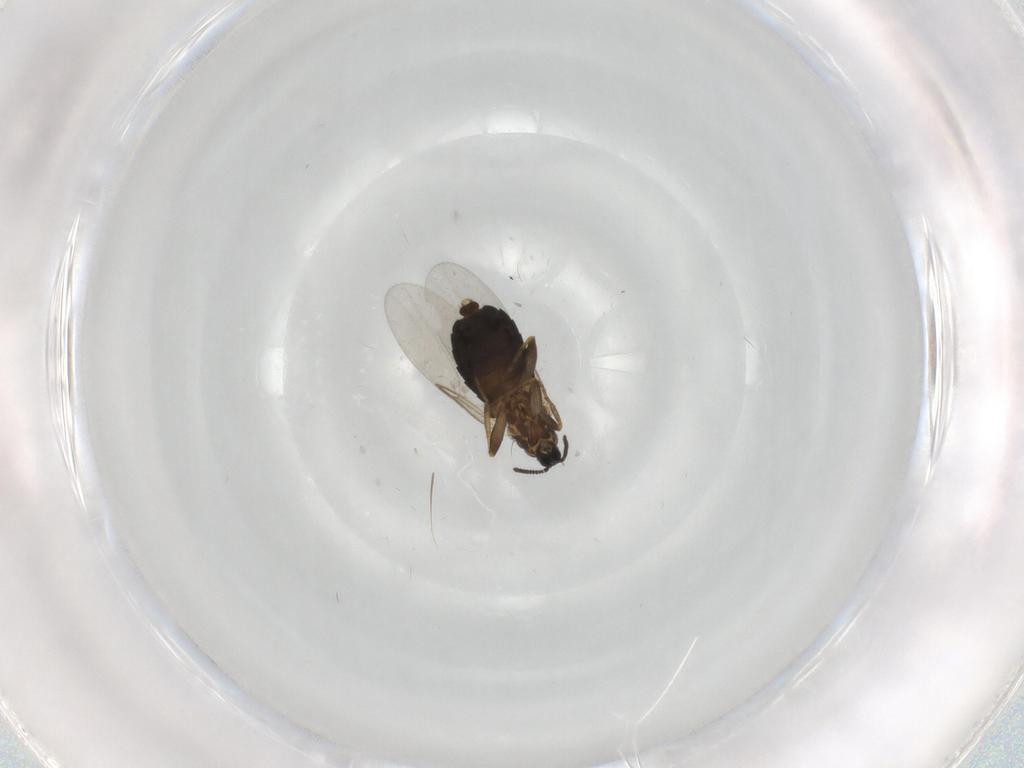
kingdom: Animalia
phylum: Arthropoda
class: Insecta
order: Diptera
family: Scatopsidae
